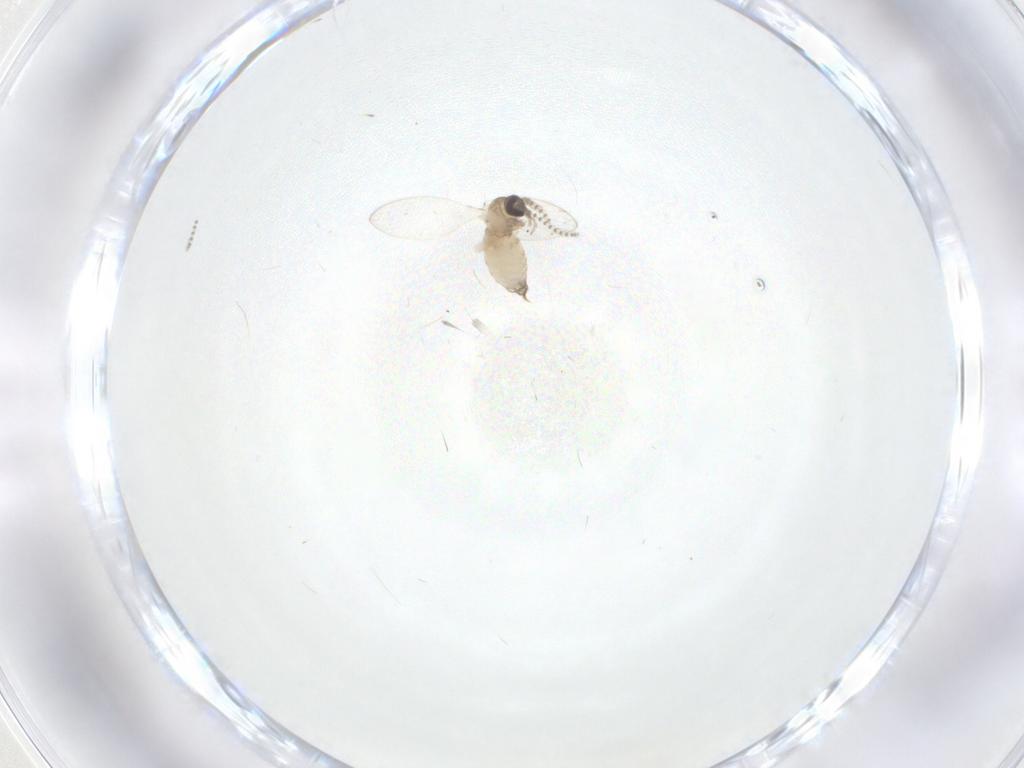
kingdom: Animalia
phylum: Arthropoda
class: Insecta
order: Diptera
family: Psychodidae
